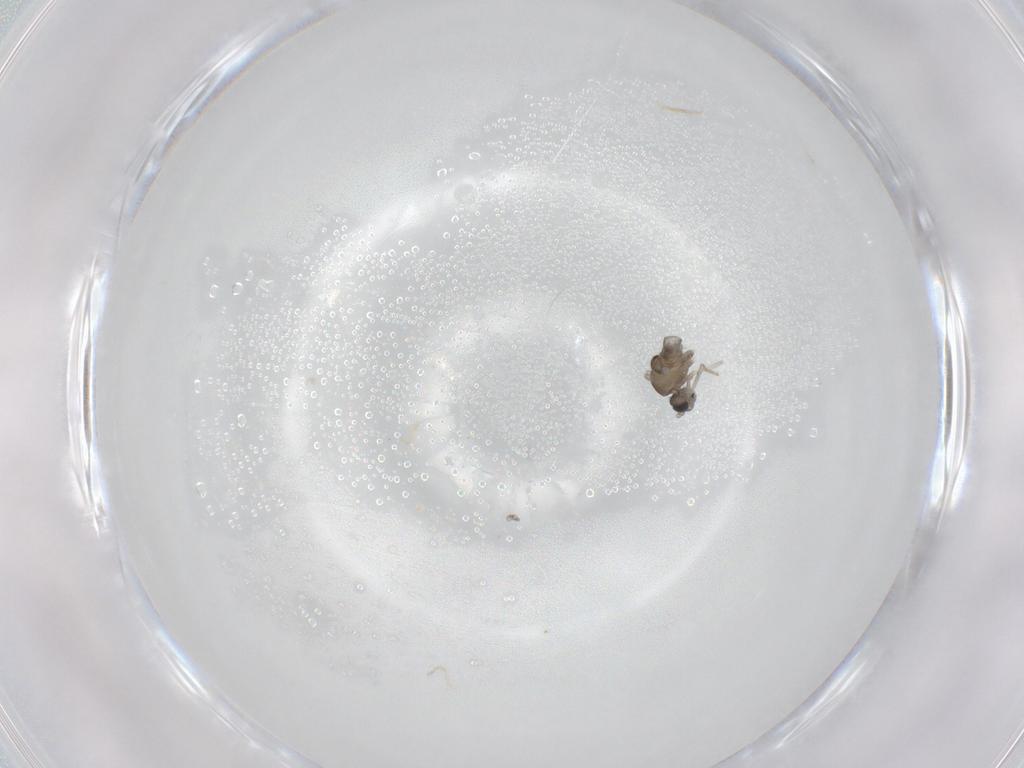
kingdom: Animalia
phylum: Arthropoda
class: Insecta
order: Diptera
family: Cecidomyiidae
